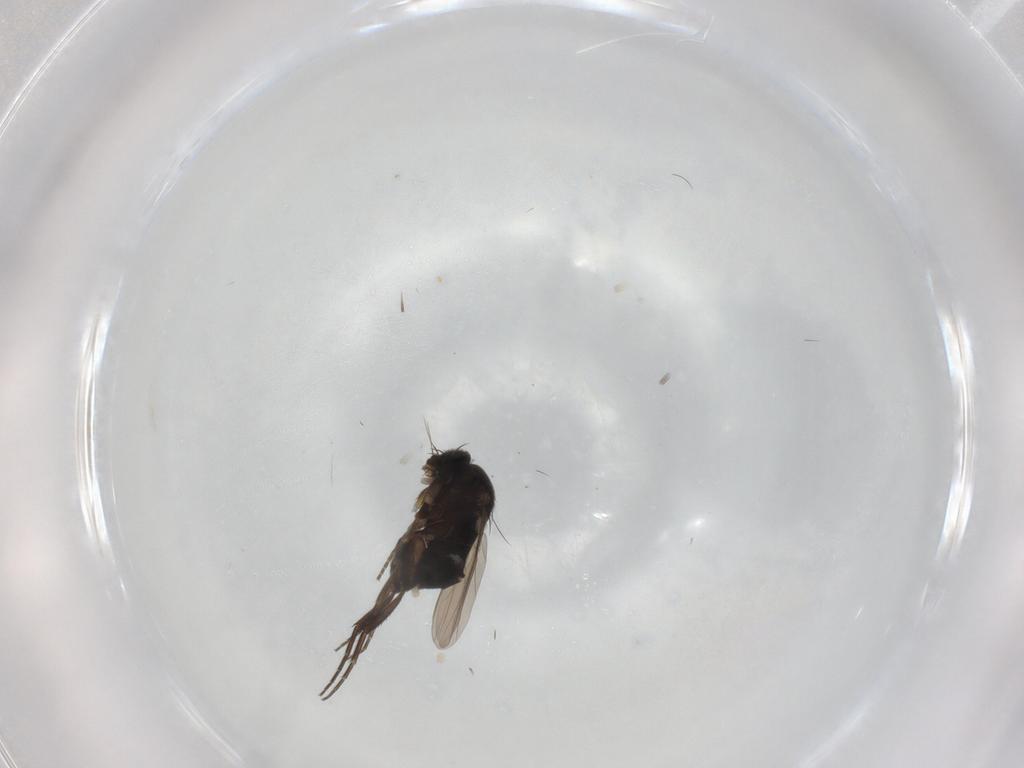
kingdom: Animalia
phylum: Arthropoda
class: Insecta
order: Diptera
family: Phoridae
